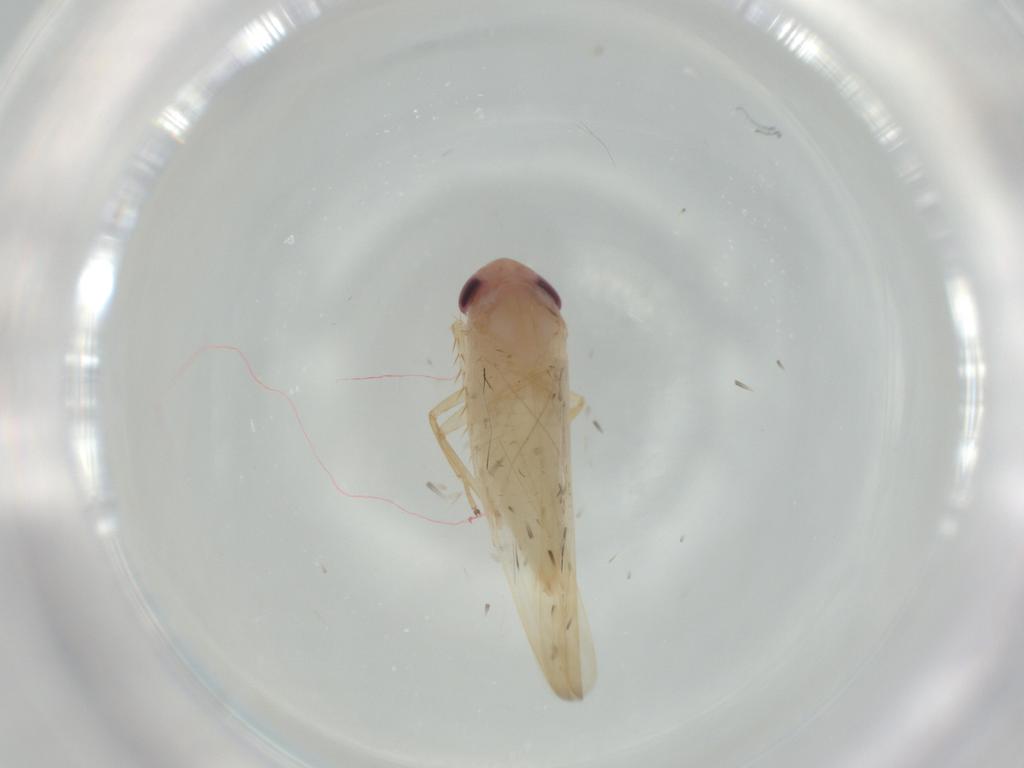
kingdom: Animalia
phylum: Arthropoda
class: Insecta
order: Hemiptera
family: Cicadellidae
